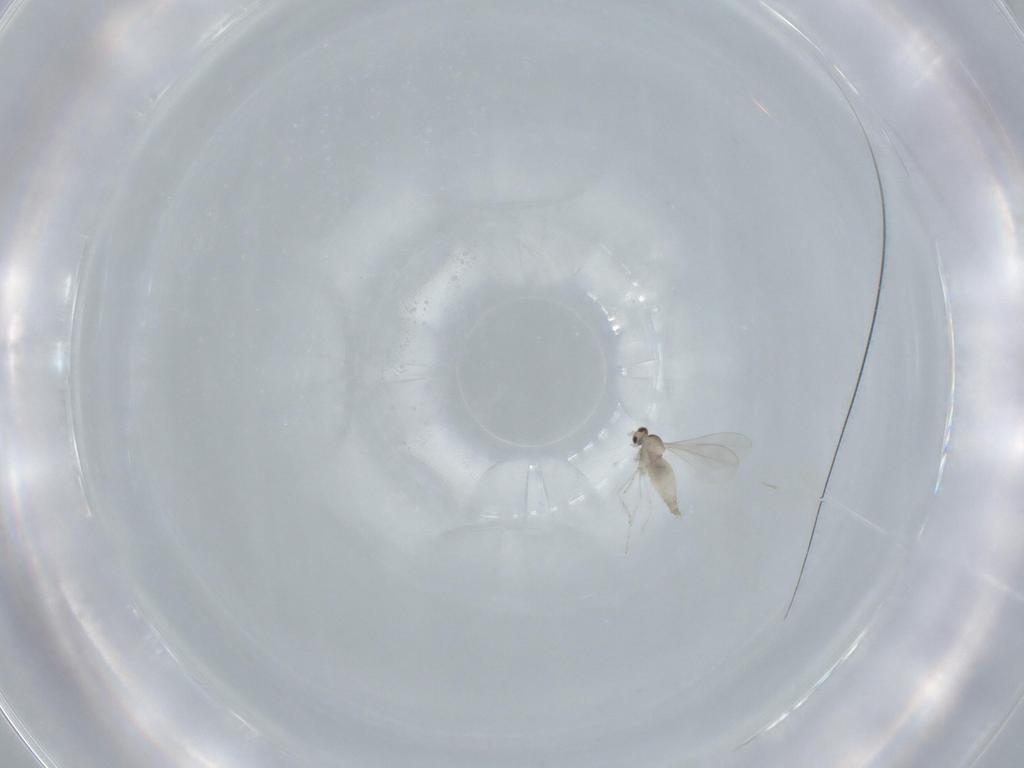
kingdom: Animalia
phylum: Arthropoda
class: Insecta
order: Diptera
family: Cecidomyiidae
